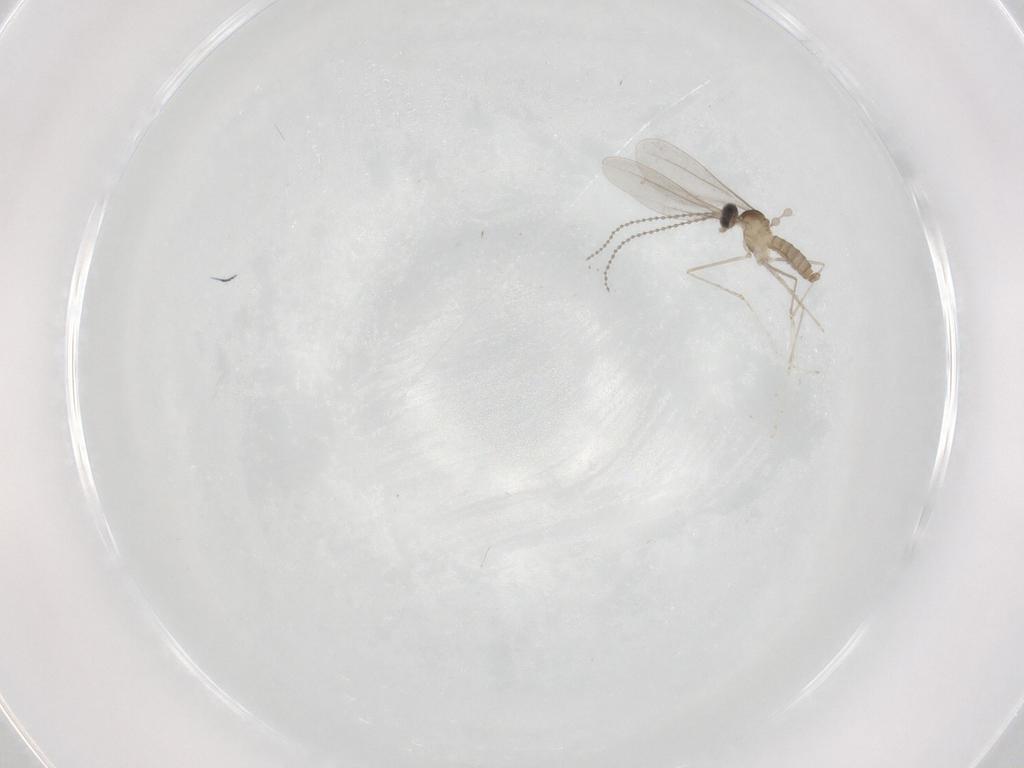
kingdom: Animalia
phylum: Arthropoda
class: Insecta
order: Diptera
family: Cecidomyiidae
